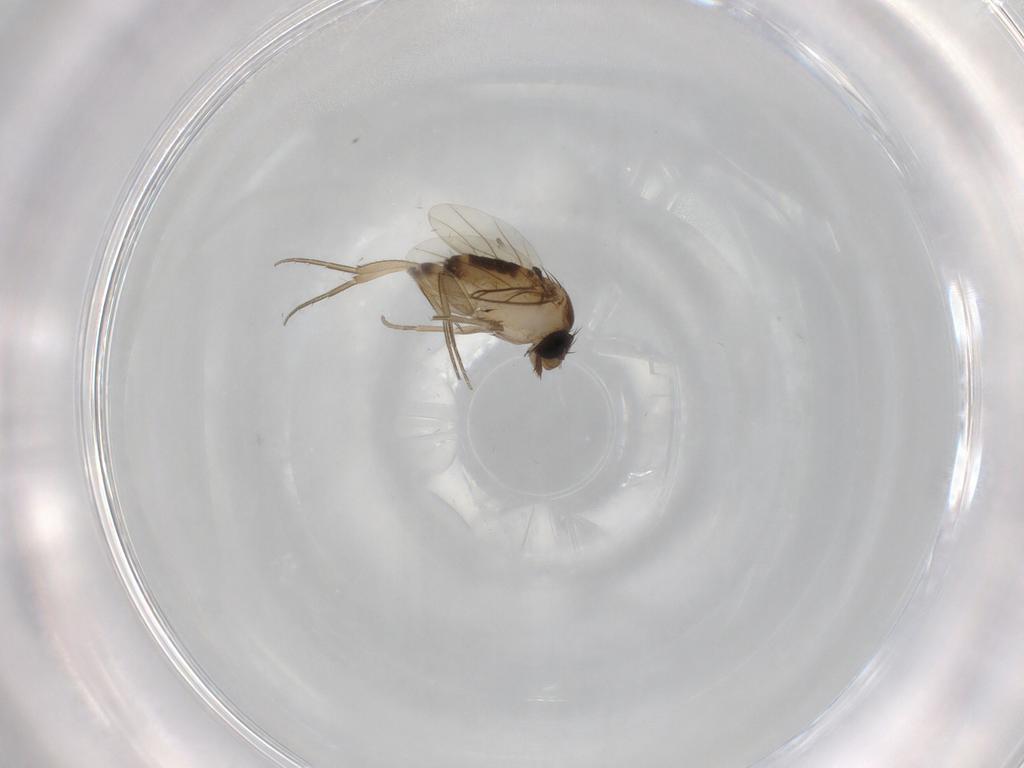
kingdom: Animalia
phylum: Arthropoda
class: Insecta
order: Diptera
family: Phoridae
